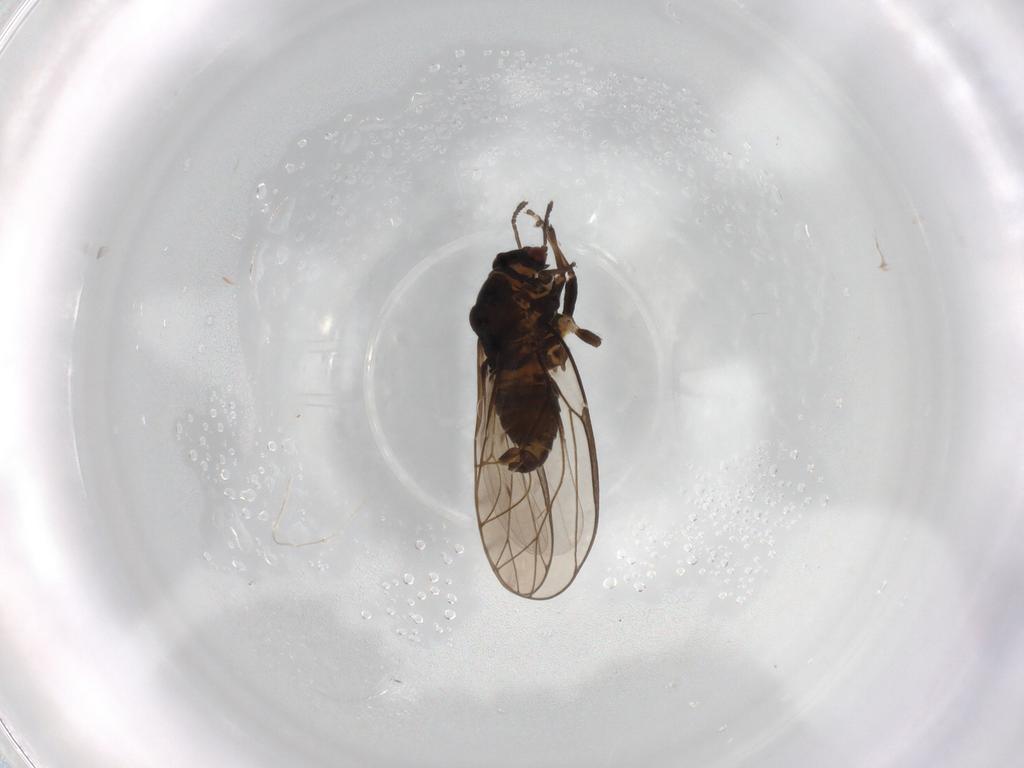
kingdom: Animalia
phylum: Arthropoda
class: Insecta
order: Hemiptera
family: Psylloidea_incertae_sedis
